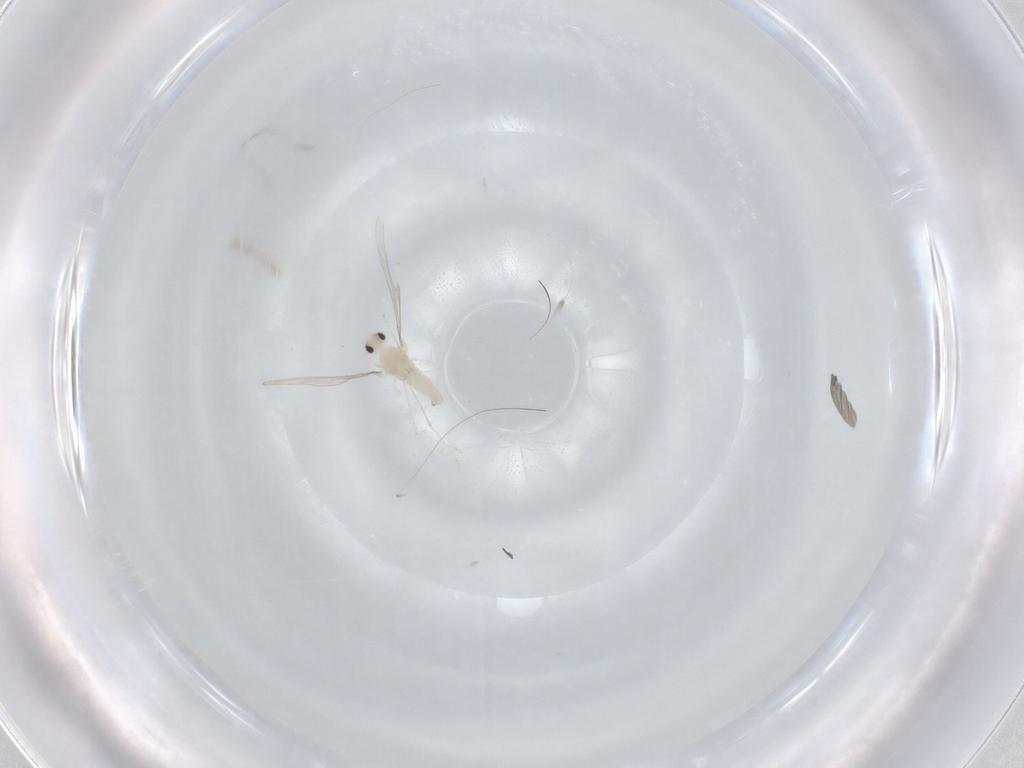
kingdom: Animalia
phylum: Arthropoda
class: Insecta
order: Diptera
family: Cecidomyiidae
